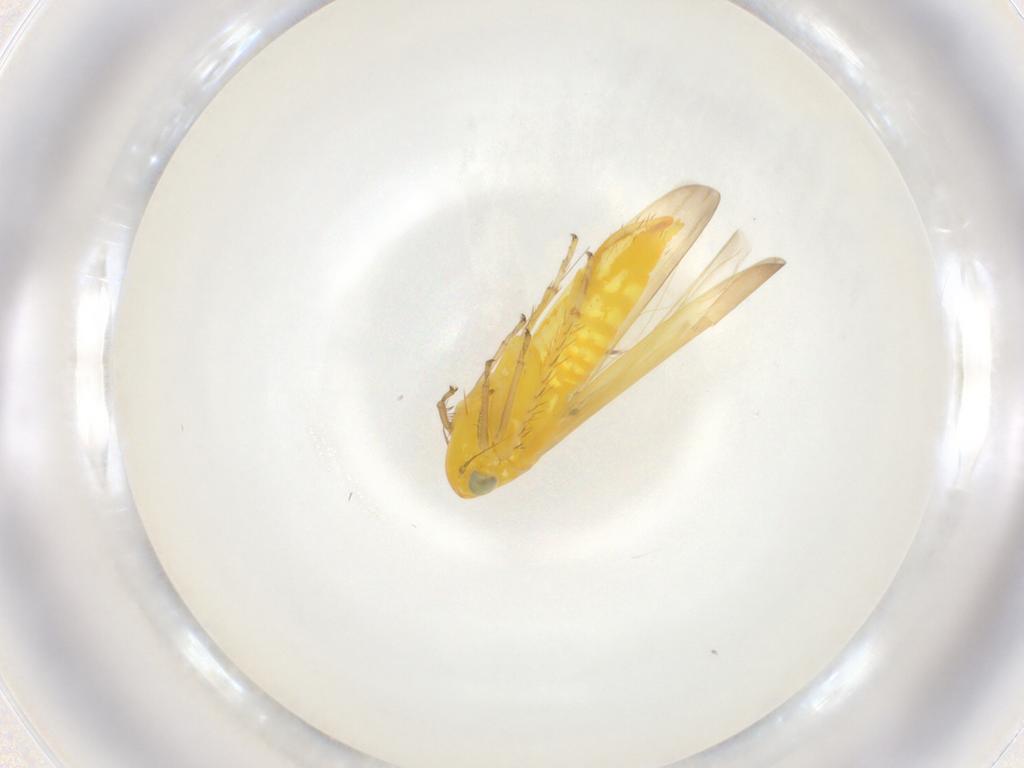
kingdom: Animalia
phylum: Arthropoda
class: Insecta
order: Hemiptera
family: Cicadellidae
